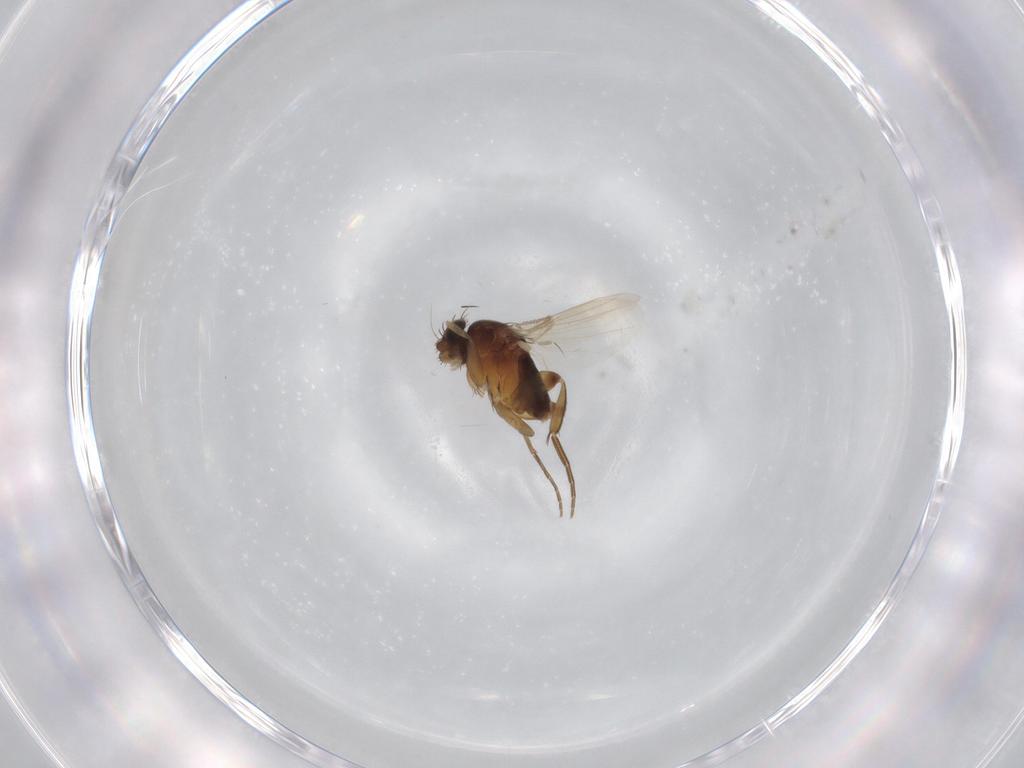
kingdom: Animalia
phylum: Arthropoda
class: Insecta
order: Diptera
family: Phoridae
